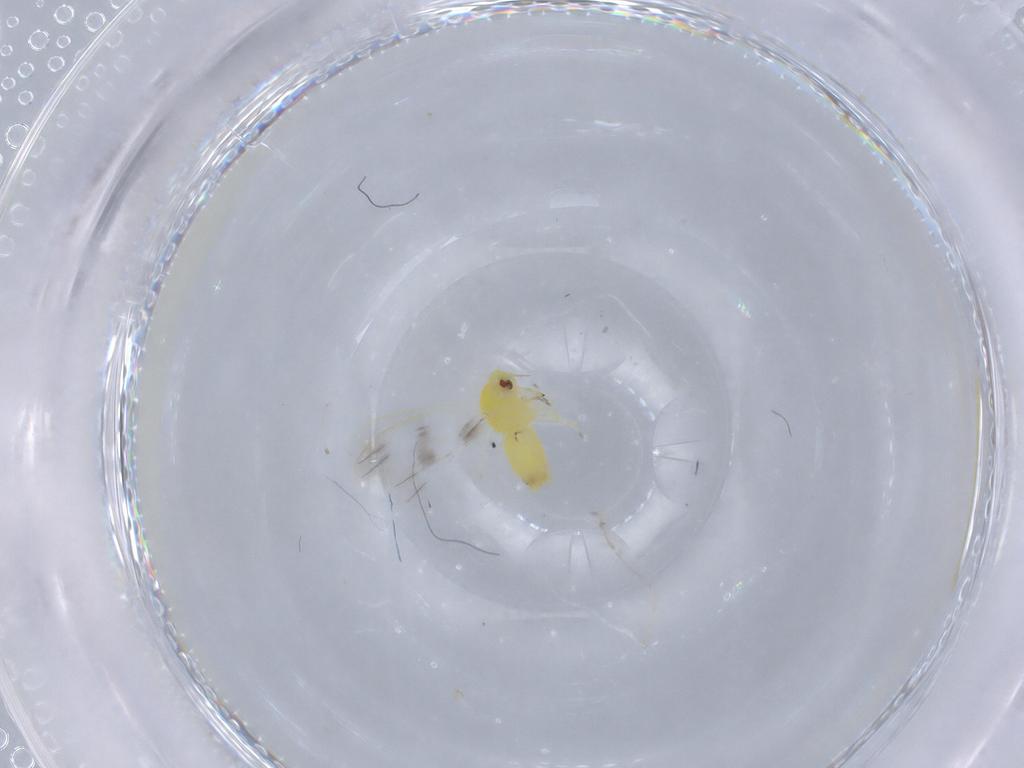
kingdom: Animalia
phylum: Arthropoda
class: Insecta
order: Hemiptera
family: Aleyrodidae
